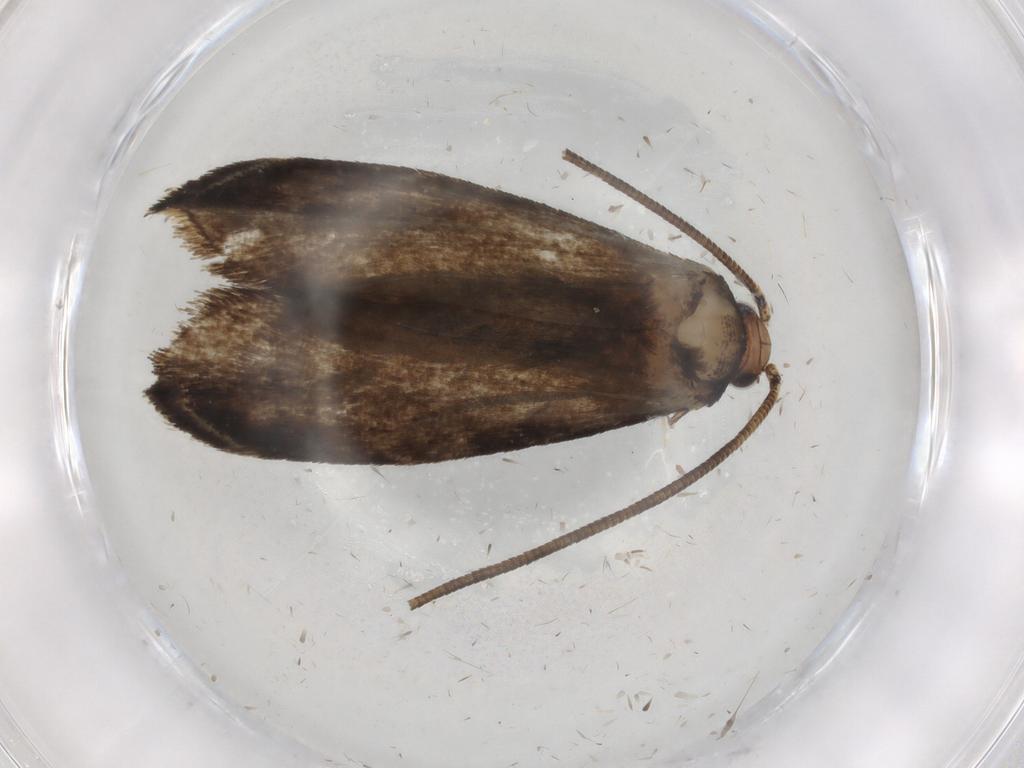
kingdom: Animalia
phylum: Arthropoda
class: Insecta
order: Lepidoptera
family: Tineidae
